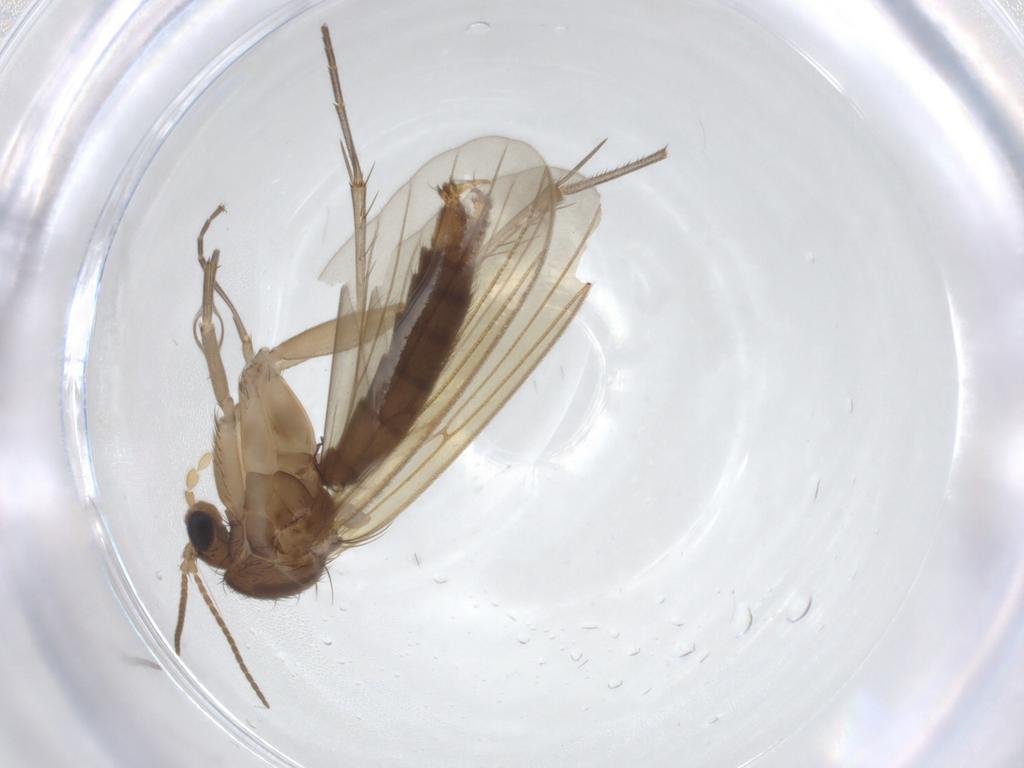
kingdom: Animalia
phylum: Arthropoda
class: Insecta
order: Diptera
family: Mycetophilidae
